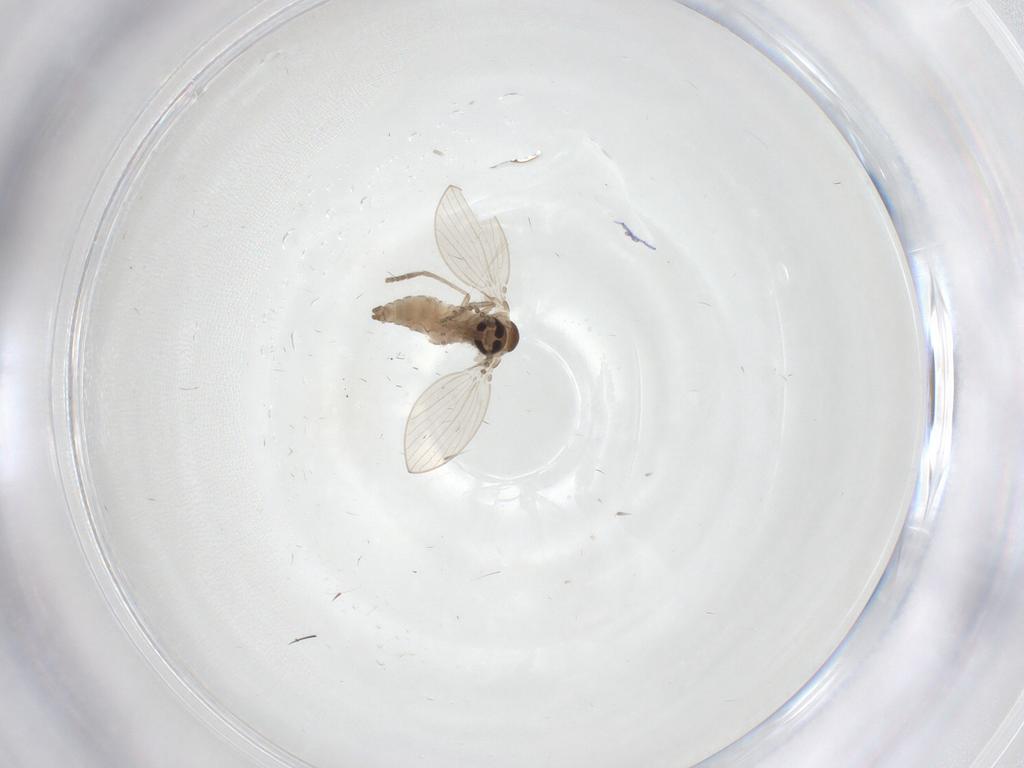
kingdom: Animalia
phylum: Arthropoda
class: Insecta
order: Diptera
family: Psychodidae
